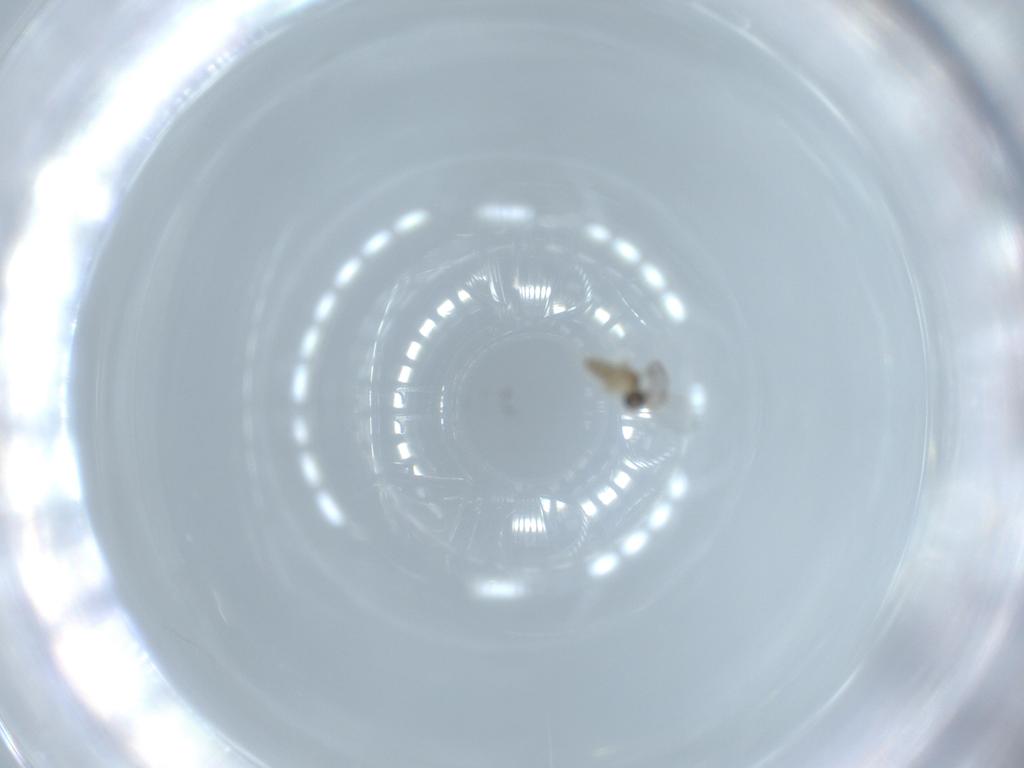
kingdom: Animalia
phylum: Arthropoda
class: Insecta
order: Diptera
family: Cecidomyiidae
